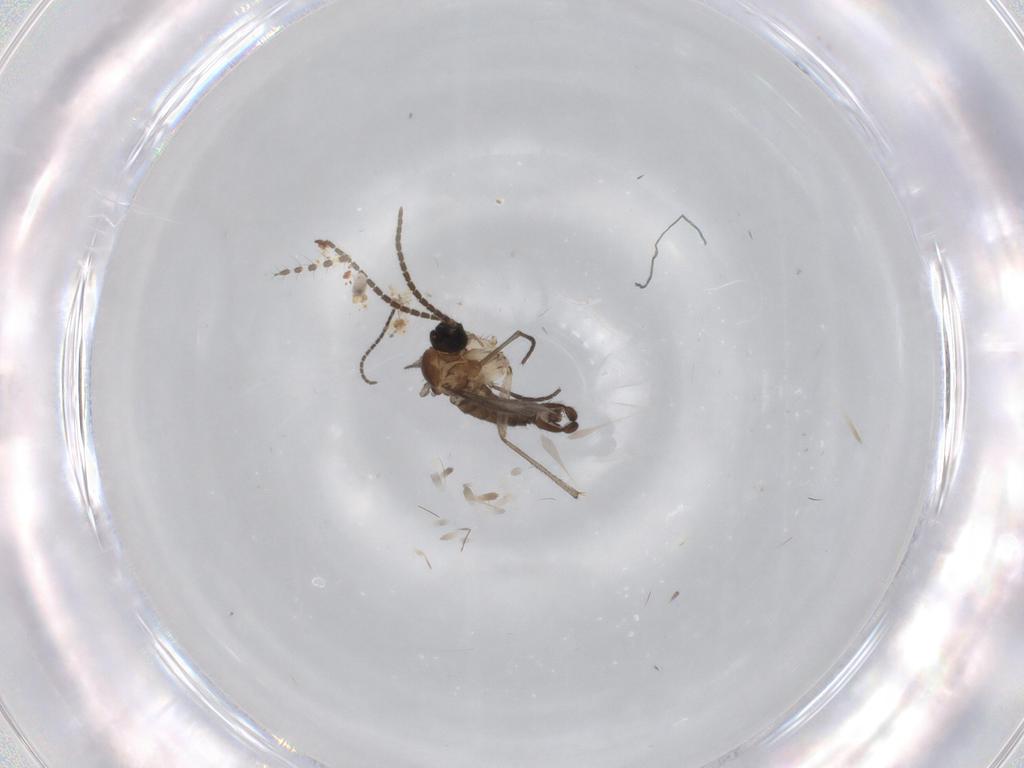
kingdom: Animalia
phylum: Arthropoda
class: Insecta
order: Diptera
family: Sciaridae
